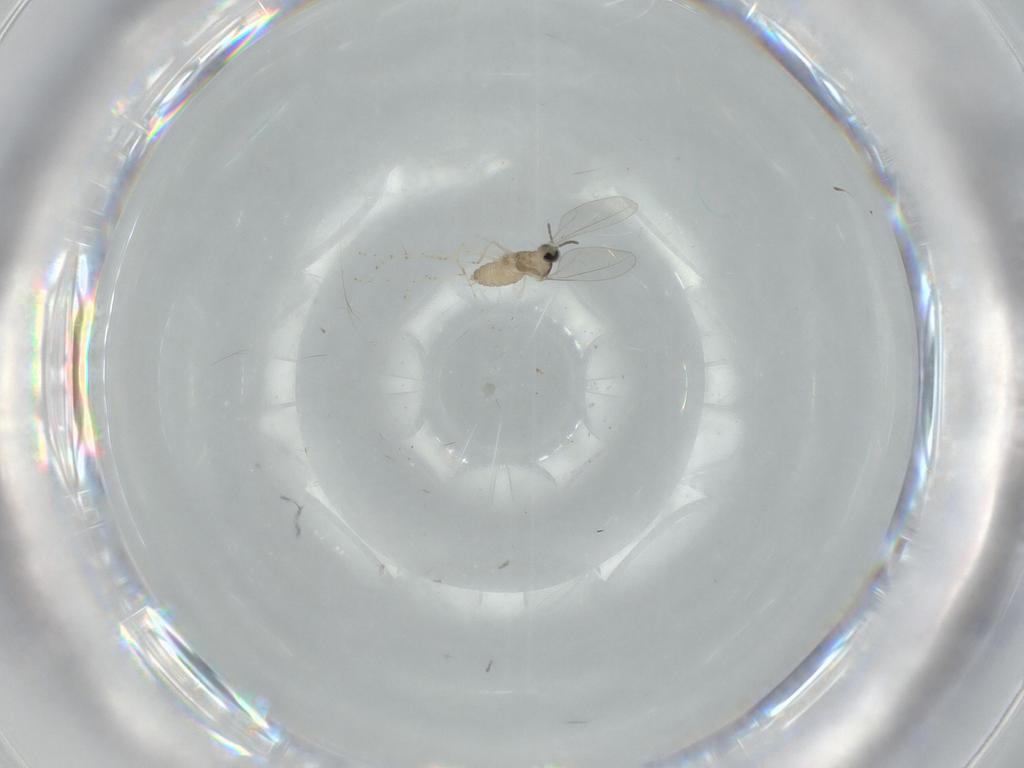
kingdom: Animalia
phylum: Arthropoda
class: Insecta
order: Diptera
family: Cecidomyiidae
